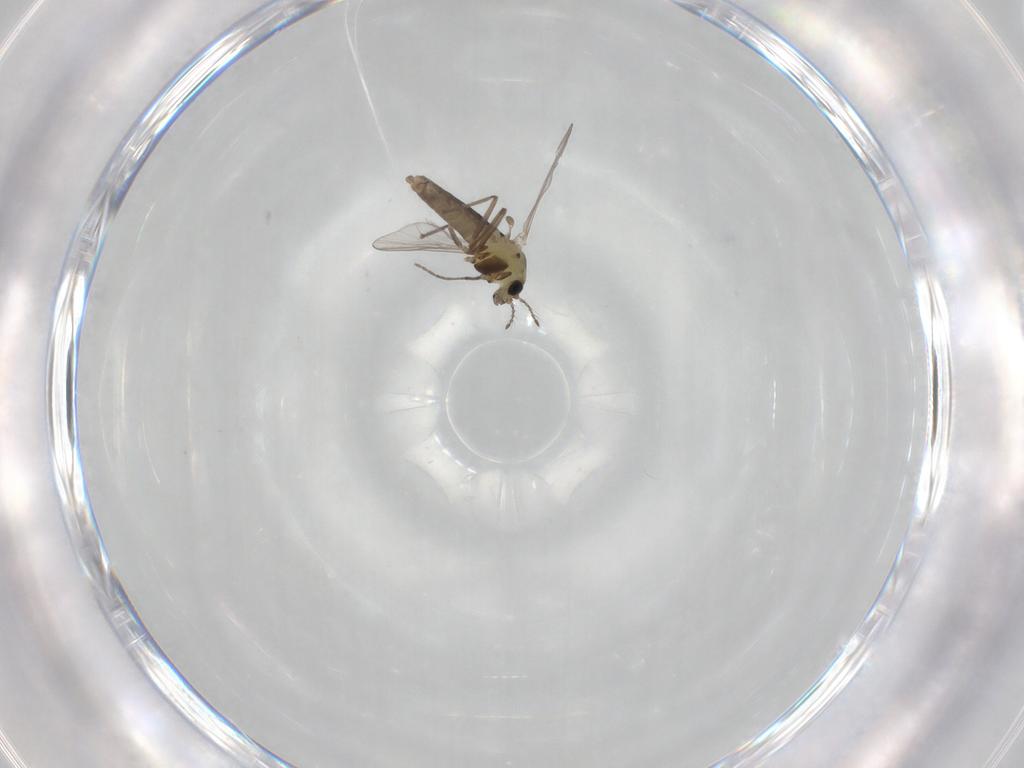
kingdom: Animalia
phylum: Arthropoda
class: Insecta
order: Diptera
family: Chironomidae
